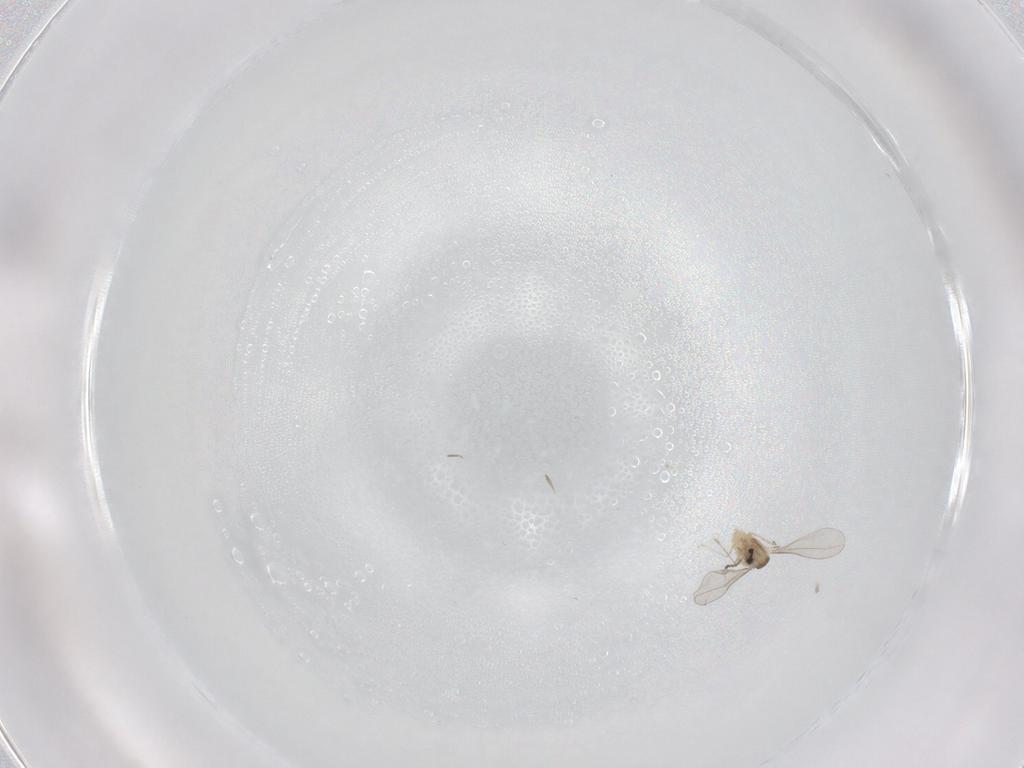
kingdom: Animalia
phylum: Arthropoda
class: Insecta
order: Diptera
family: Cecidomyiidae
